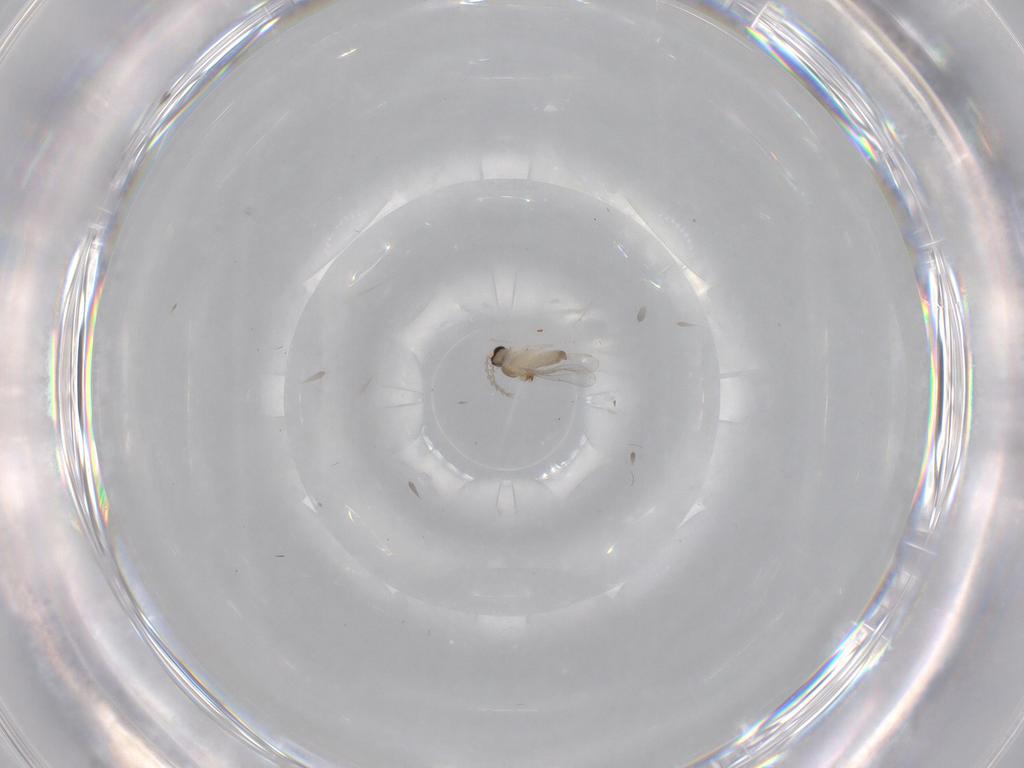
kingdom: Animalia
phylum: Arthropoda
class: Insecta
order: Diptera
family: Cecidomyiidae
